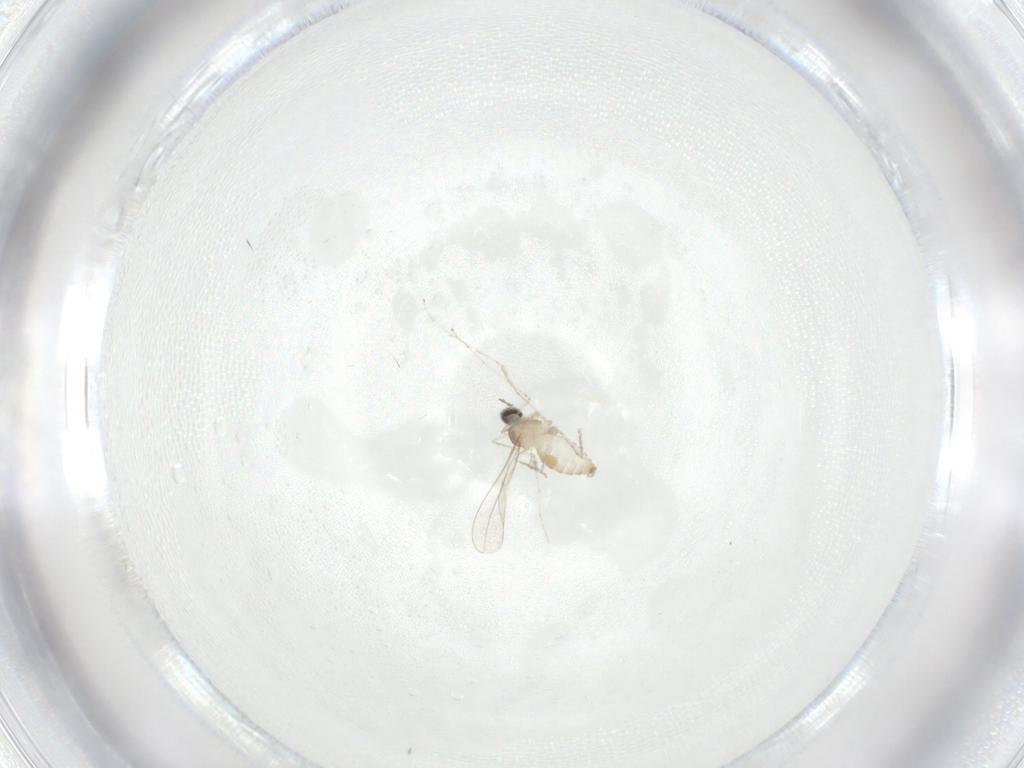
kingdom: Animalia
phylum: Arthropoda
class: Insecta
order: Diptera
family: Cecidomyiidae
